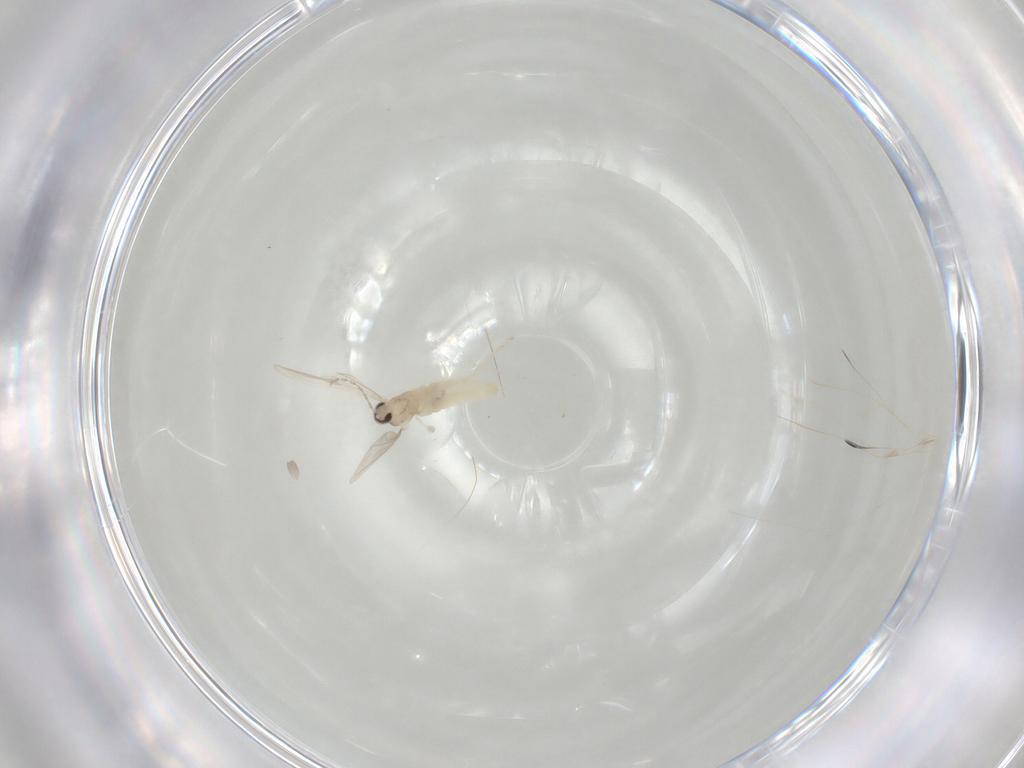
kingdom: Animalia
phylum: Arthropoda
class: Insecta
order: Diptera
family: Cecidomyiidae
